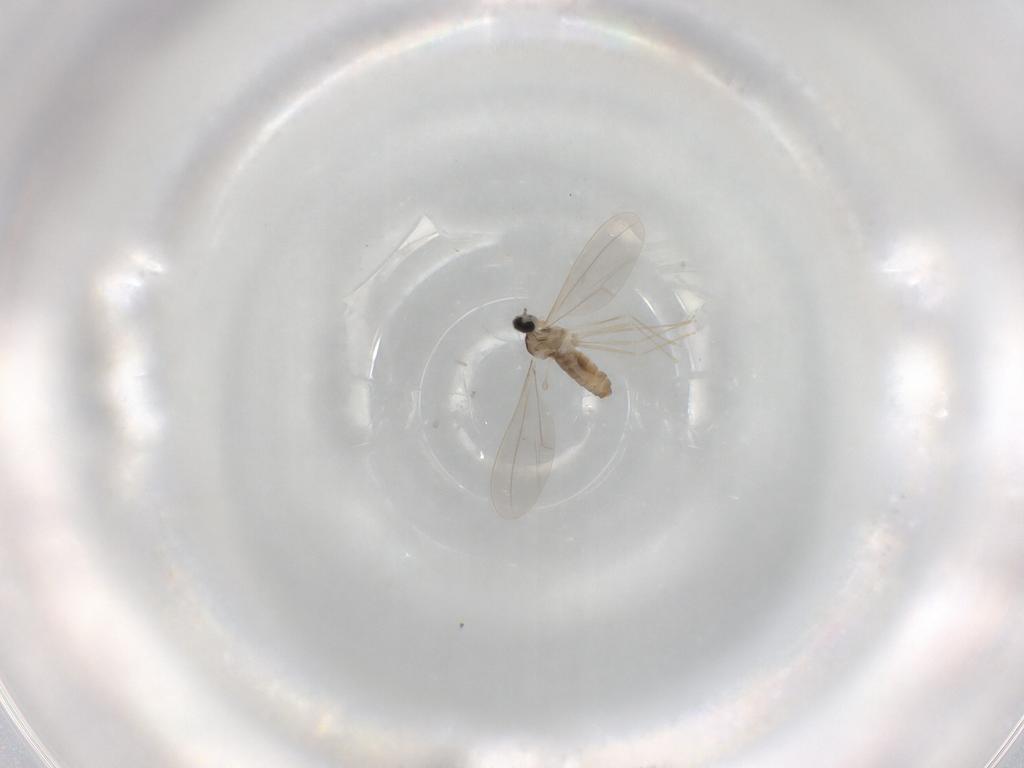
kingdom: Animalia
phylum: Arthropoda
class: Insecta
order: Diptera
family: Cecidomyiidae
